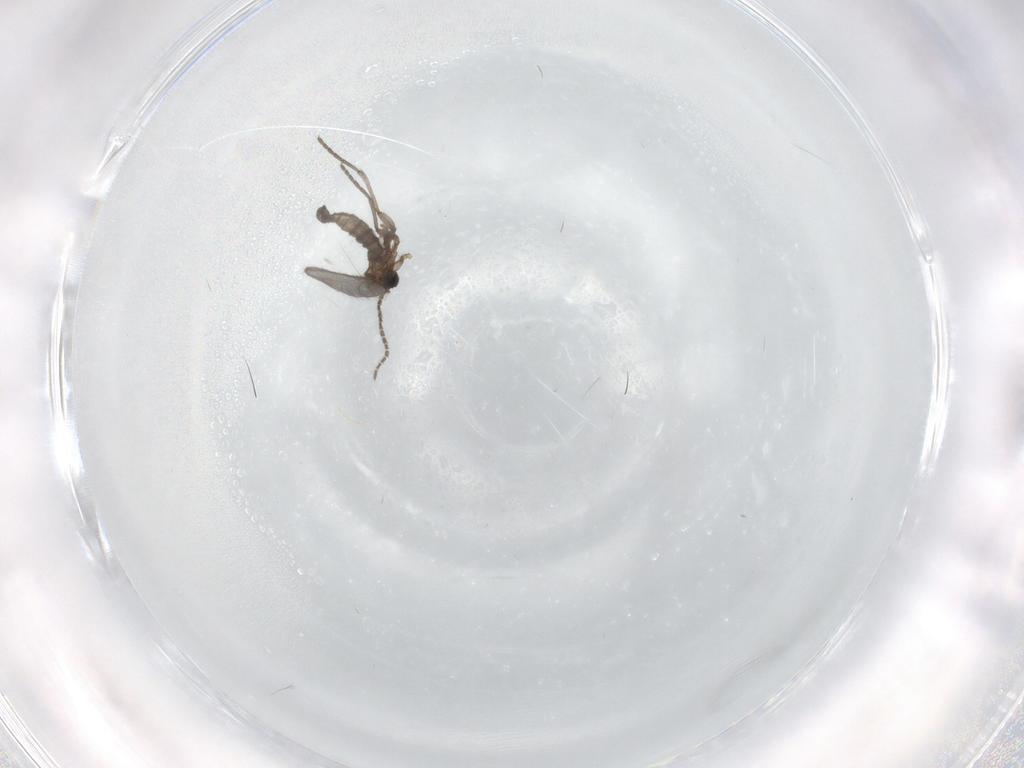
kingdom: Animalia
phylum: Arthropoda
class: Insecta
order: Diptera
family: Sciaridae
